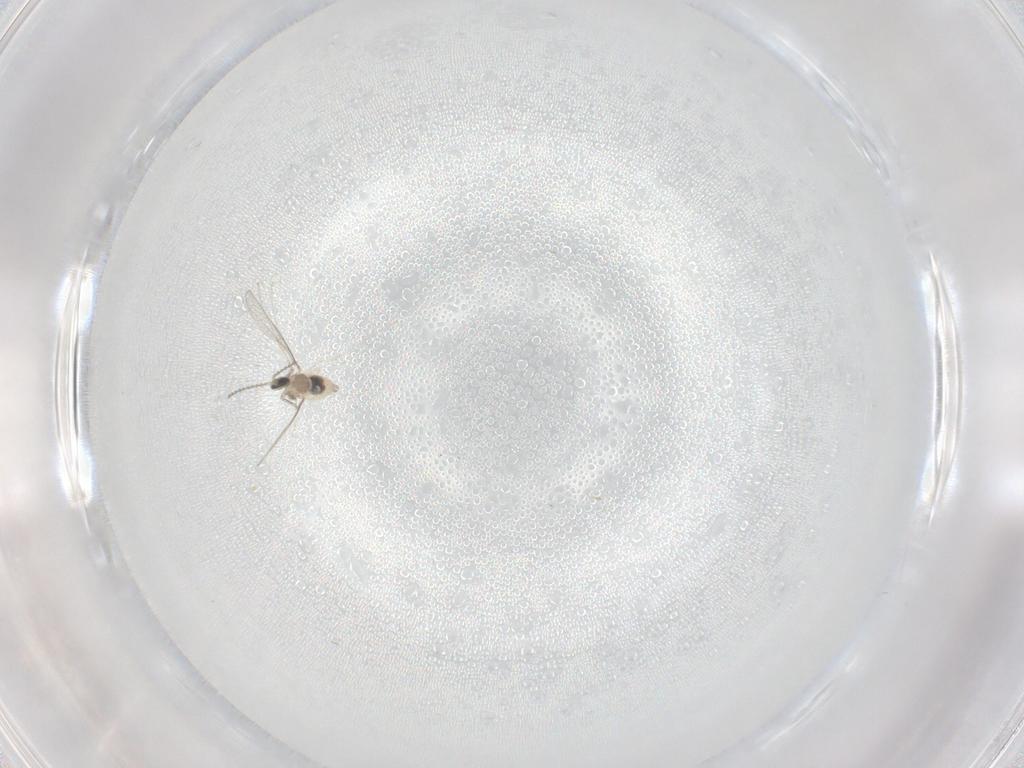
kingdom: Animalia
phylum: Arthropoda
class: Insecta
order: Diptera
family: Cecidomyiidae
